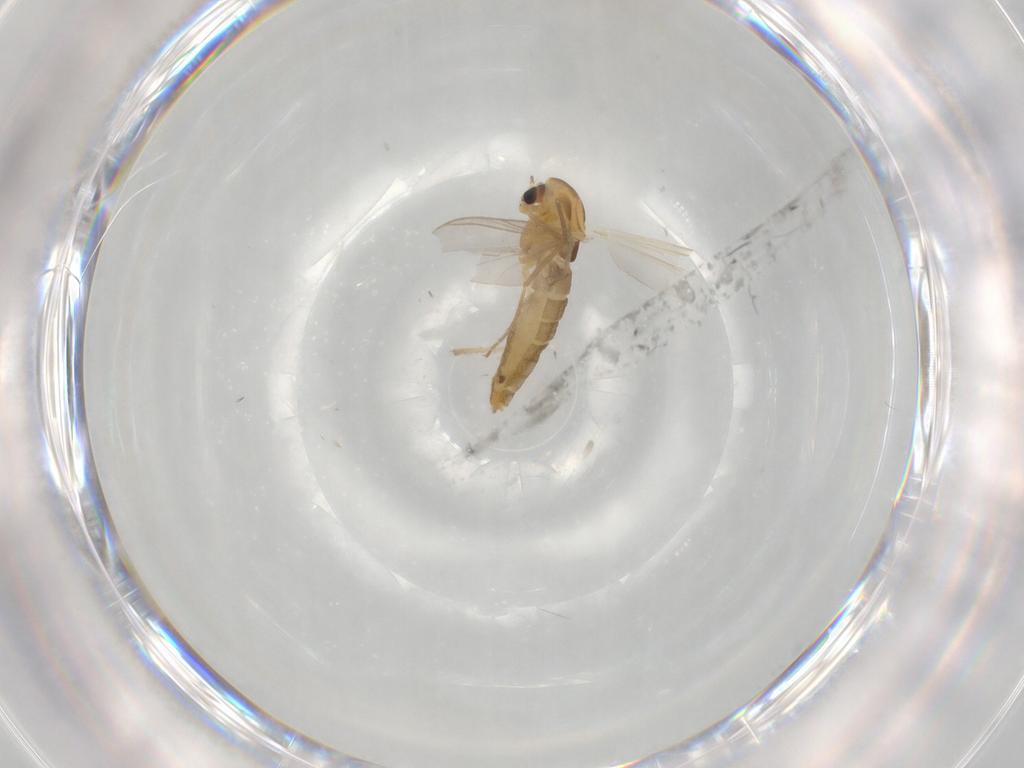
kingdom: Animalia
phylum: Arthropoda
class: Insecta
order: Diptera
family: Chironomidae
